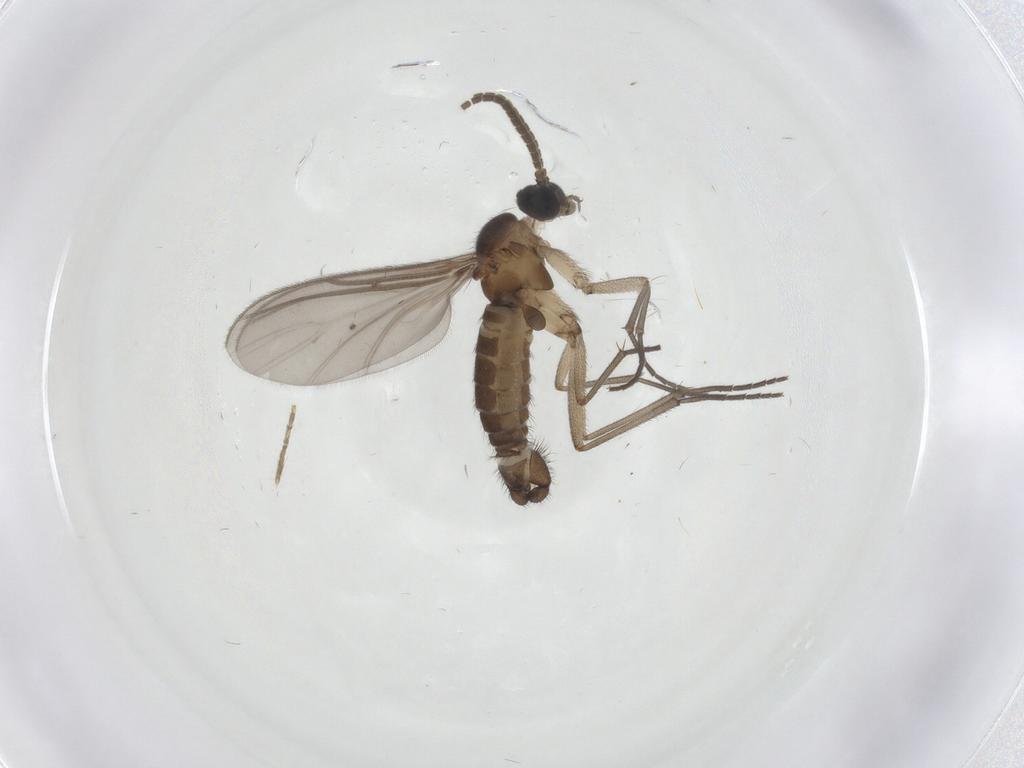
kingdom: Animalia
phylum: Arthropoda
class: Insecta
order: Diptera
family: Sciaridae
